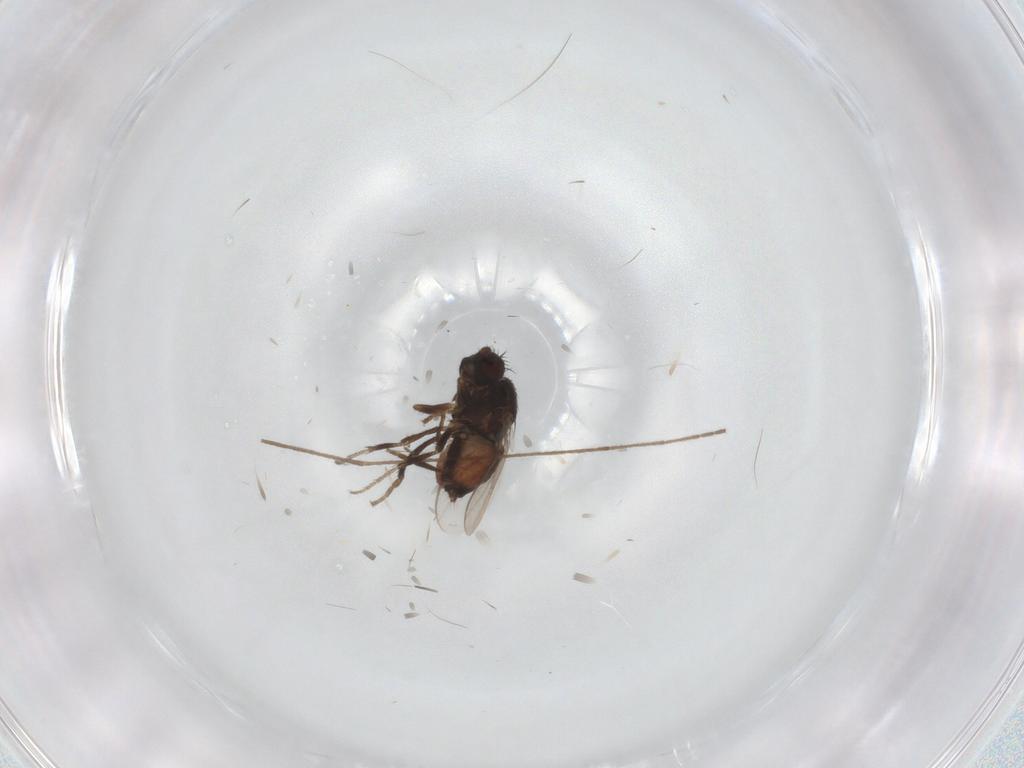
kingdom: Animalia
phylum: Arthropoda
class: Insecta
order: Diptera
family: Sphaeroceridae
